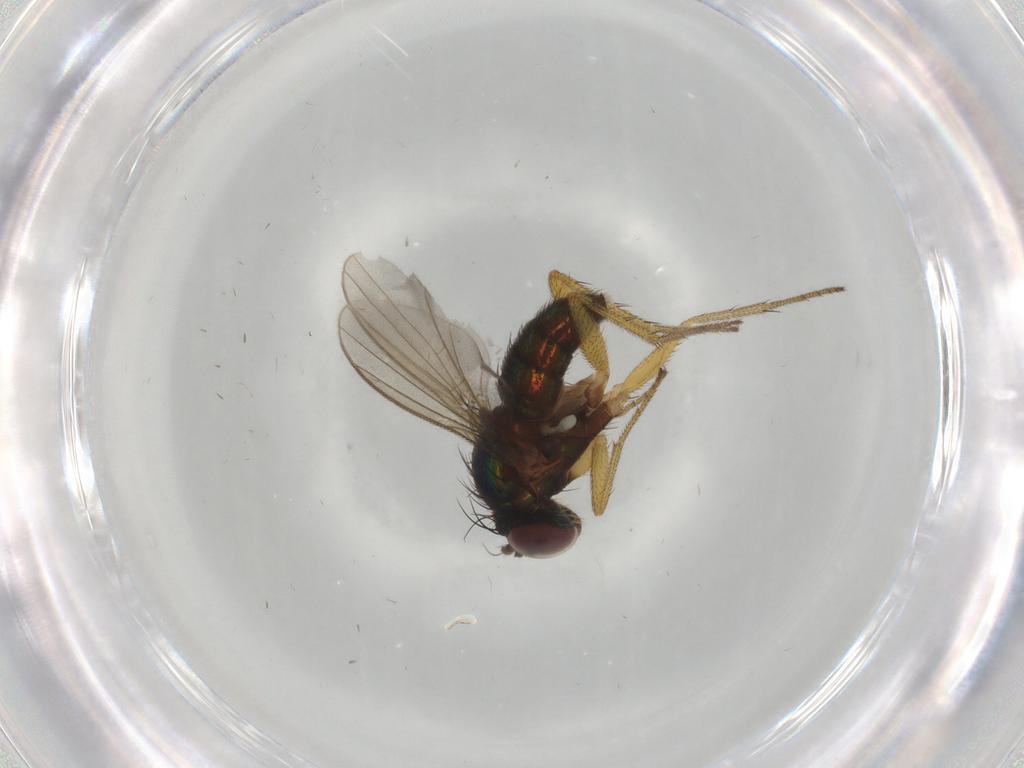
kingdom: Animalia
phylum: Arthropoda
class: Insecta
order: Diptera
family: Dolichopodidae
